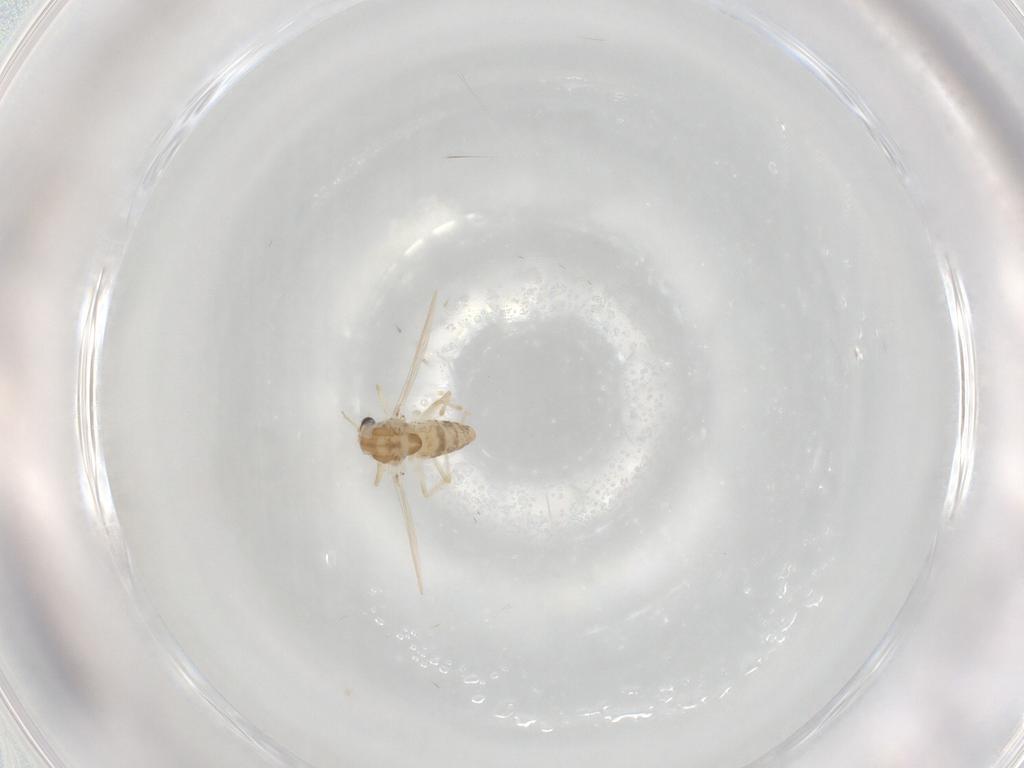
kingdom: Animalia
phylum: Arthropoda
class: Insecta
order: Diptera
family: Chironomidae
